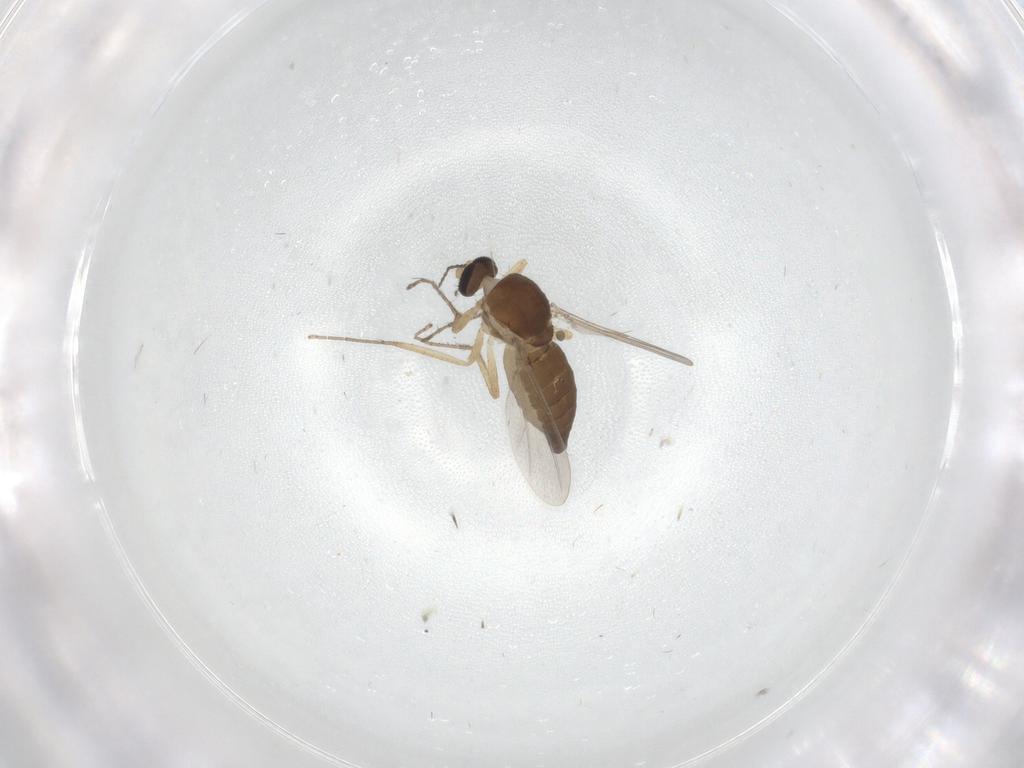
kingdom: Animalia
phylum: Arthropoda
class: Insecta
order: Diptera
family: Ceratopogonidae
